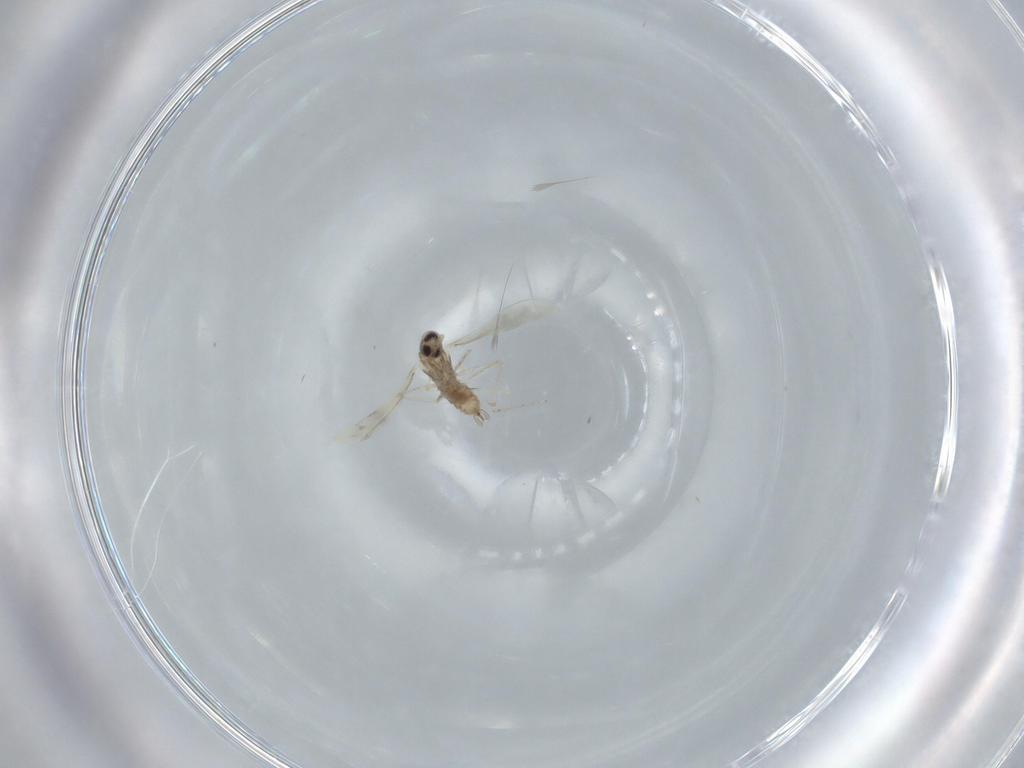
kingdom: Animalia
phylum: Arthropoda
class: Insecta
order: Diptera
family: Cecidomyiidae
